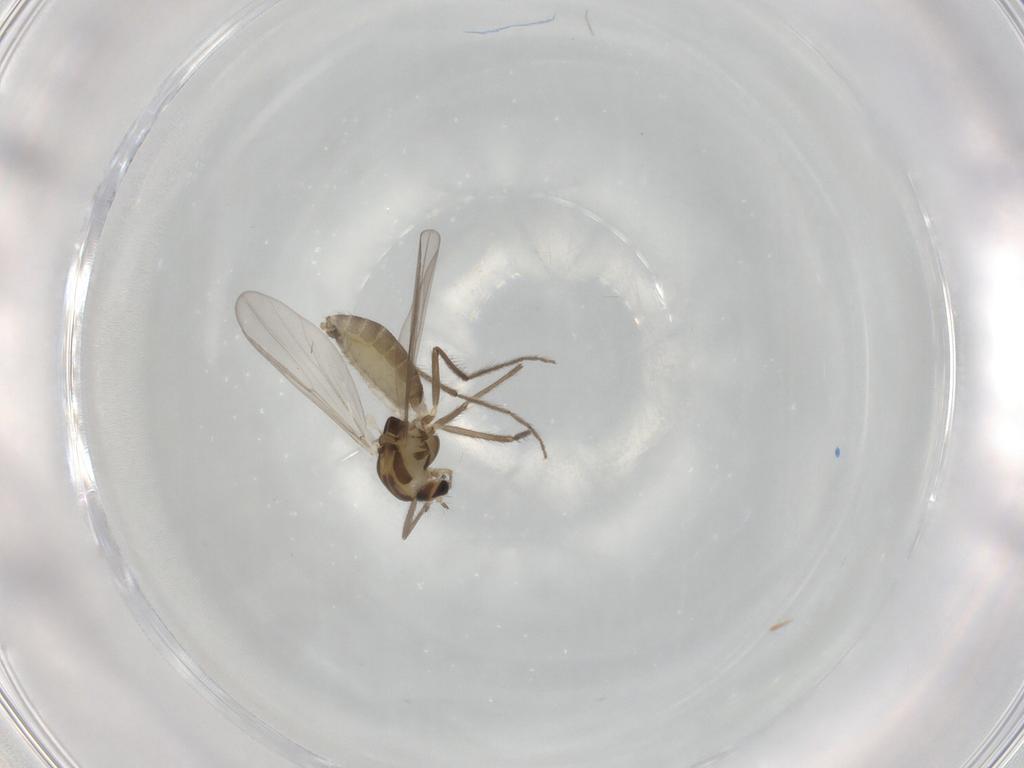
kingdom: Animalia
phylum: Arthropoda
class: Insecta
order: Diptera
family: Chironomidae
